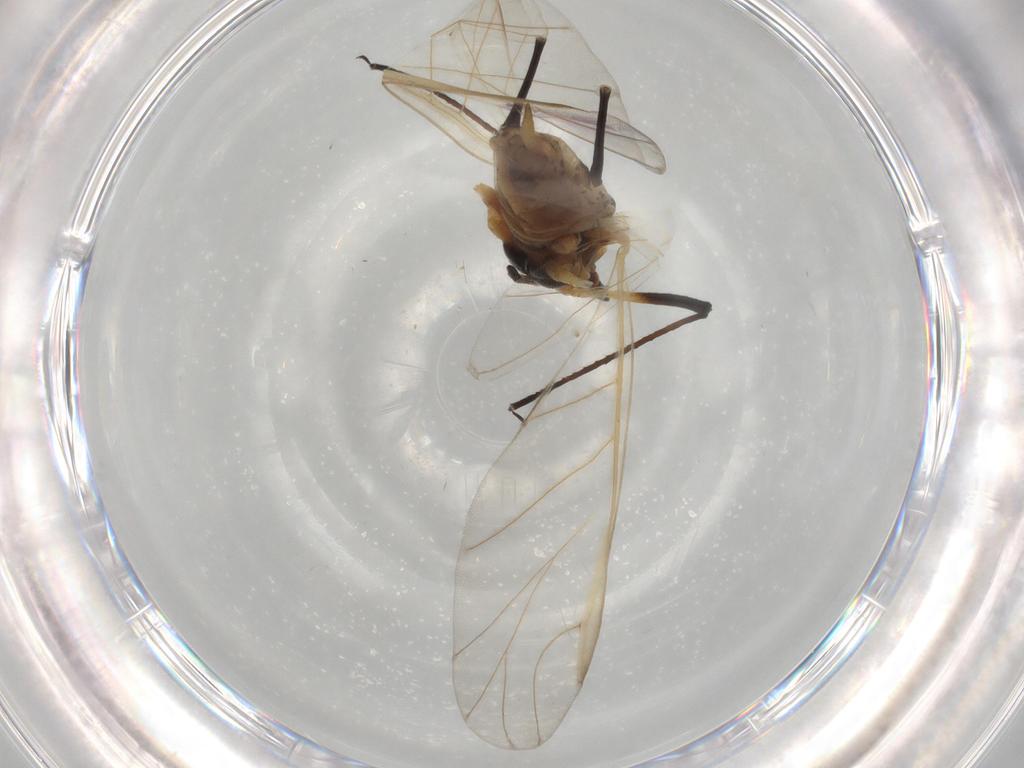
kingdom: Animalia
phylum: Arthropoda
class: Insecta
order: Hemiptera
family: Aphididae
